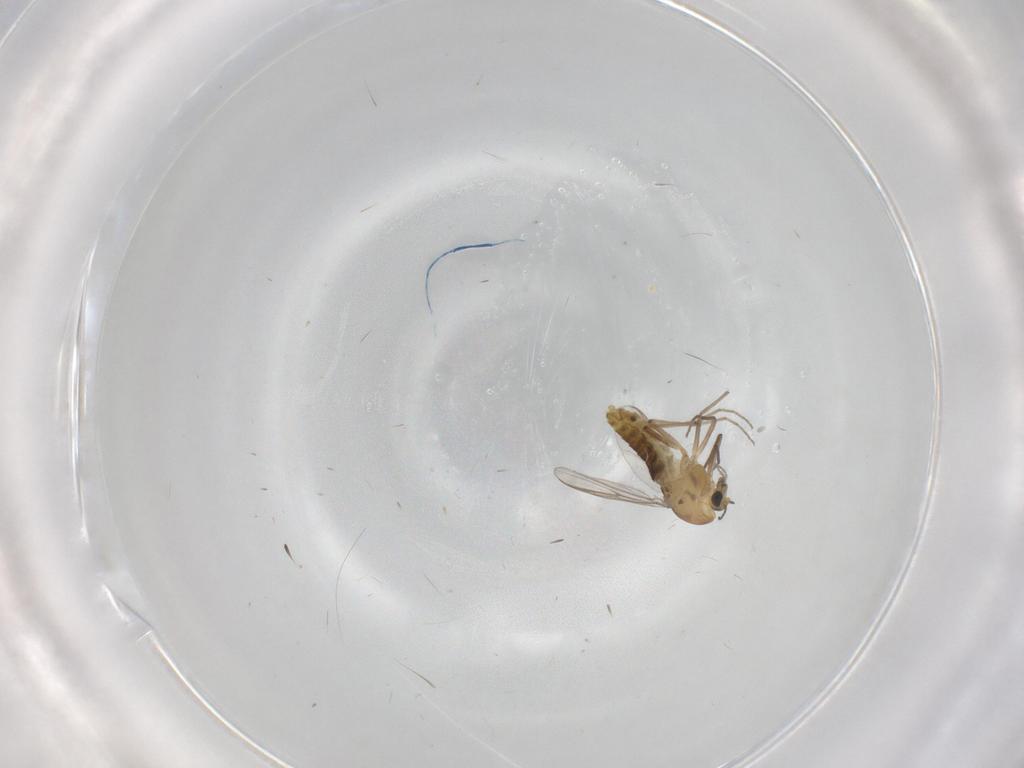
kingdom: Animalia
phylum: Arthropoda
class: Insecta
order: Diptera
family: Chironomidae
